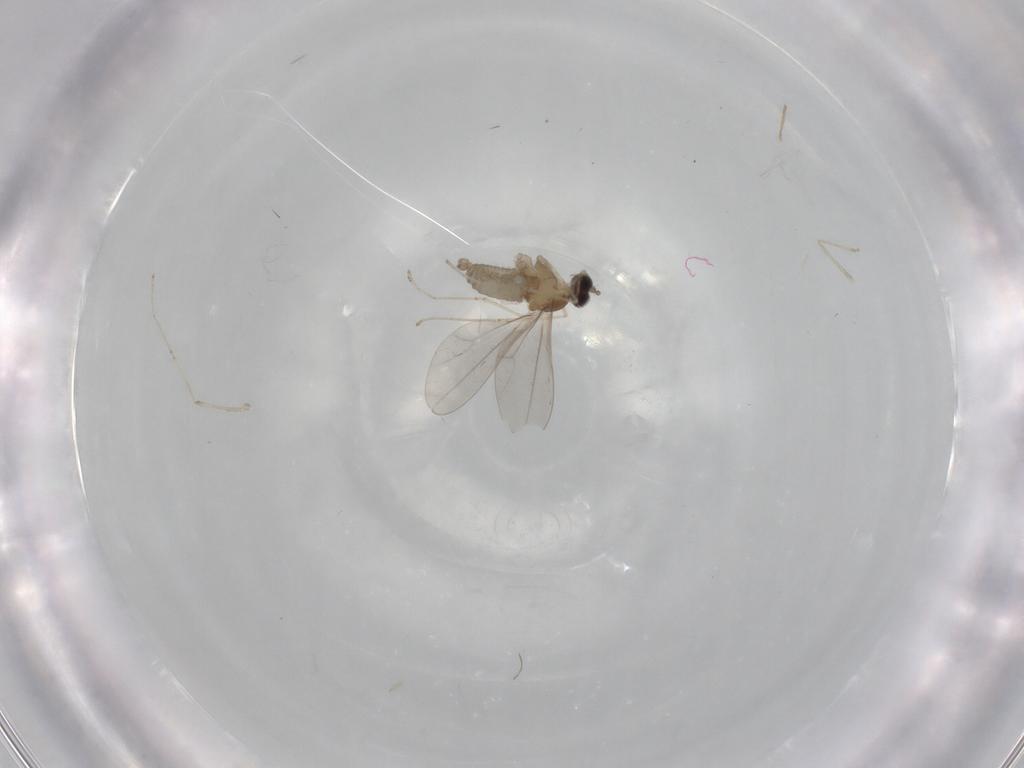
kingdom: Animalia
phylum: Arthropoda
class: Insecta
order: Diptera
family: Cecidomyiidae
